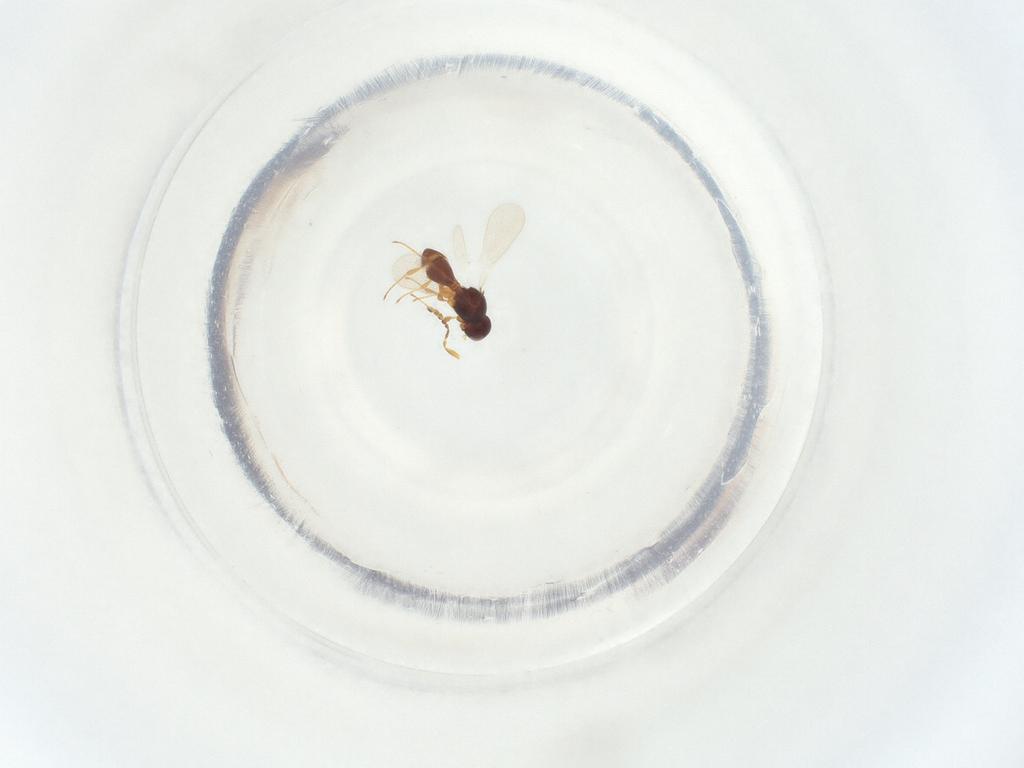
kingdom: Animalia
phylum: Arthropoda
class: Insecta
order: Hymenoptera
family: Platygastridae
